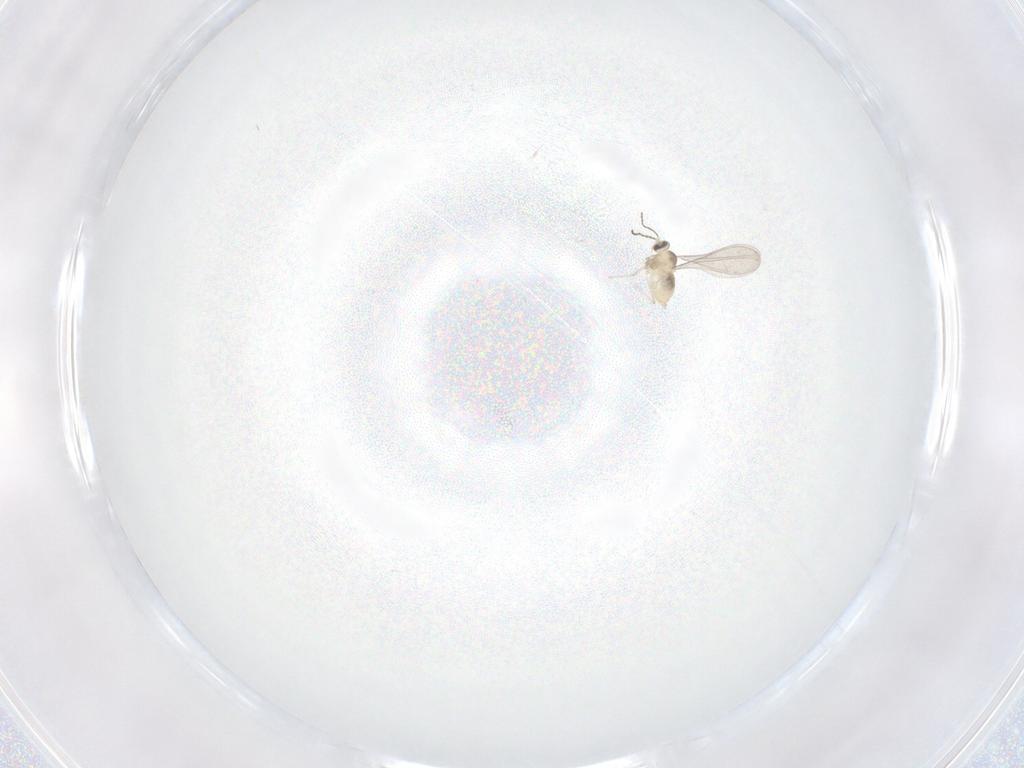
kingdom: Animalia
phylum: Arthropoda
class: Insecta
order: Diptera
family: Cecidomyiidae
